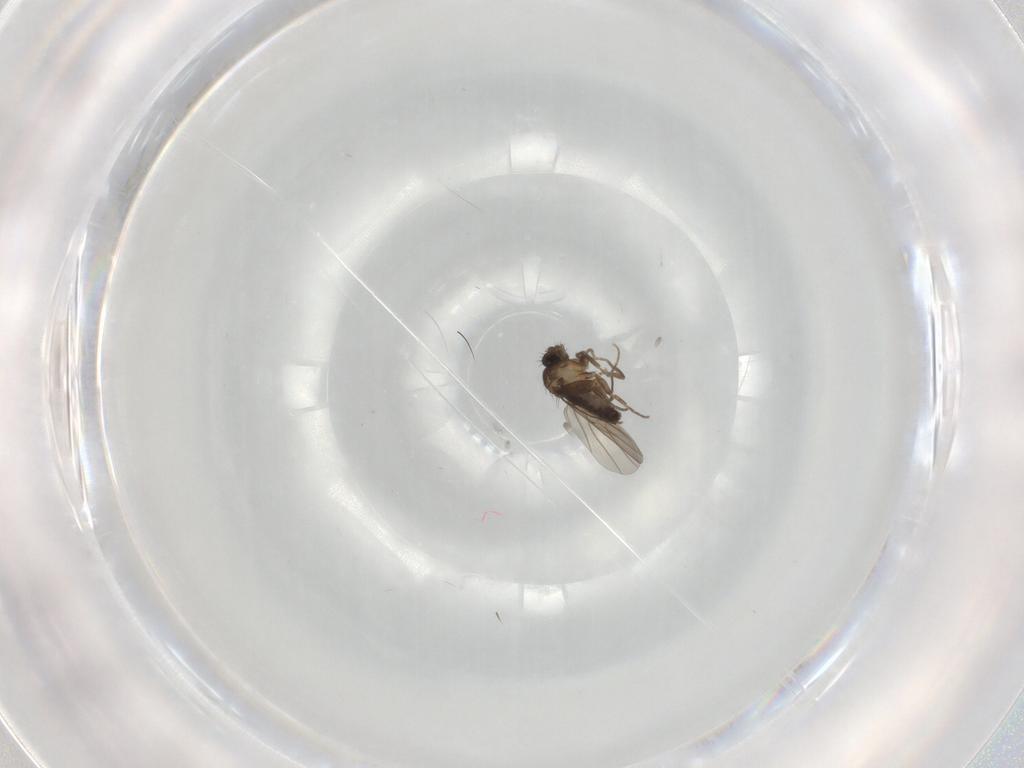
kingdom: Animalia
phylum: Arthropoda
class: Insecta
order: Diptera
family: Phoridae
